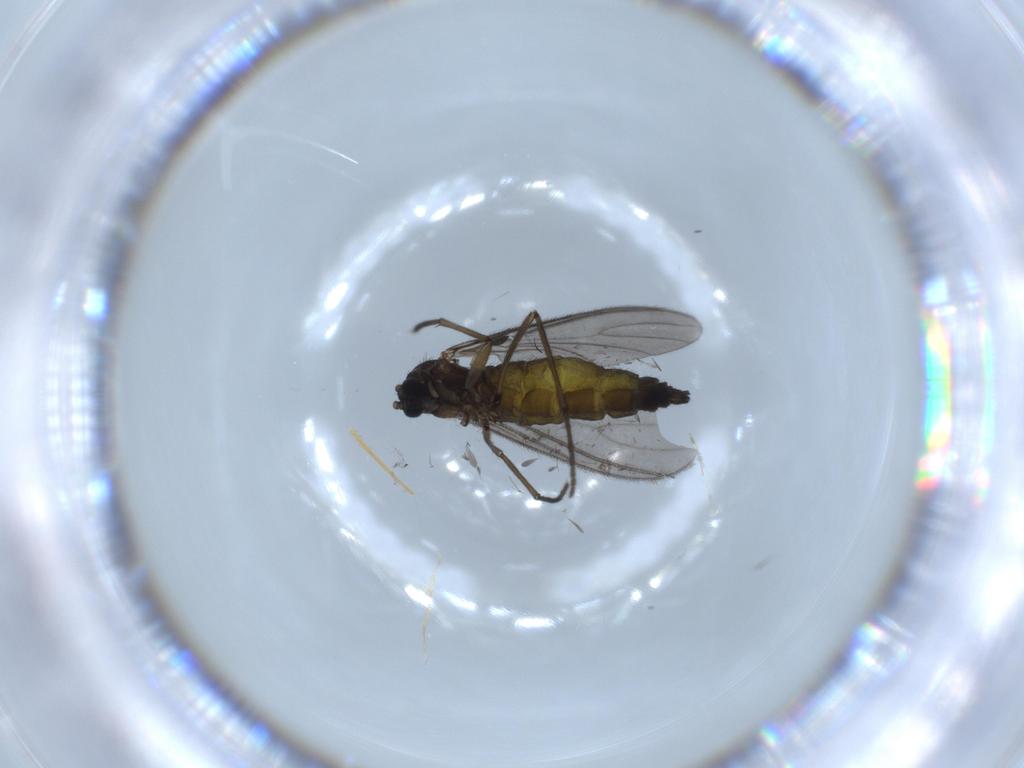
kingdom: Animalia
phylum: Arthropoda
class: Insecta
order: Diptera
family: Sciaridae
